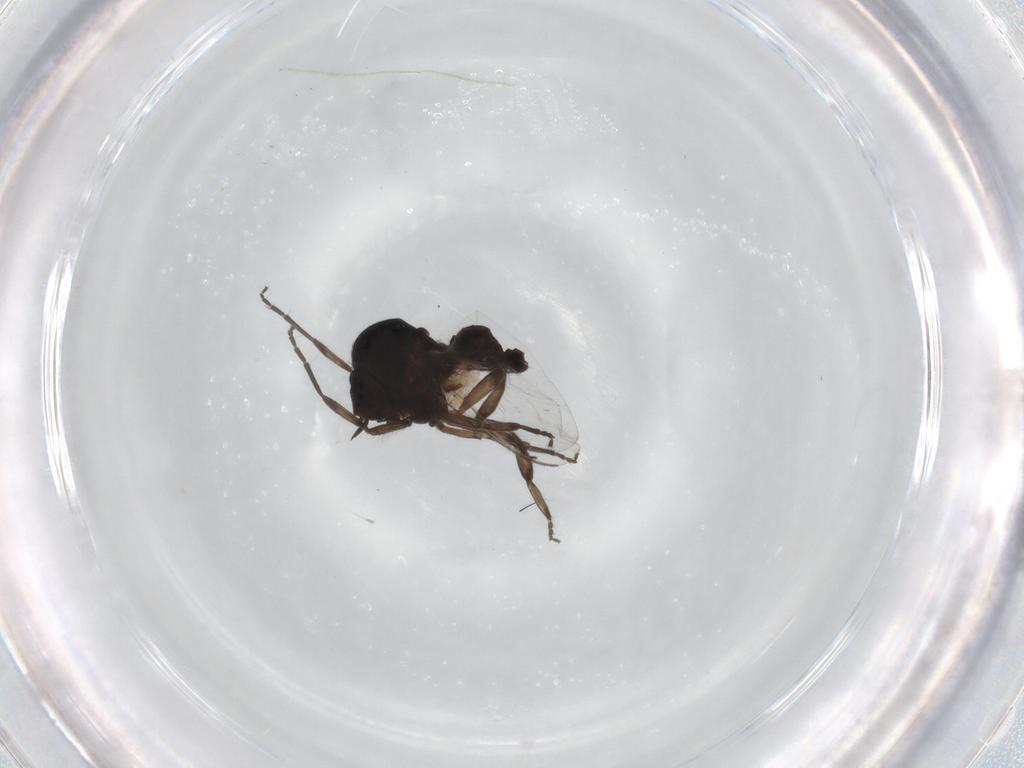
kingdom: Animalia
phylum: Arthropoda
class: Insecta
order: Diptera
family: Simuliidae
